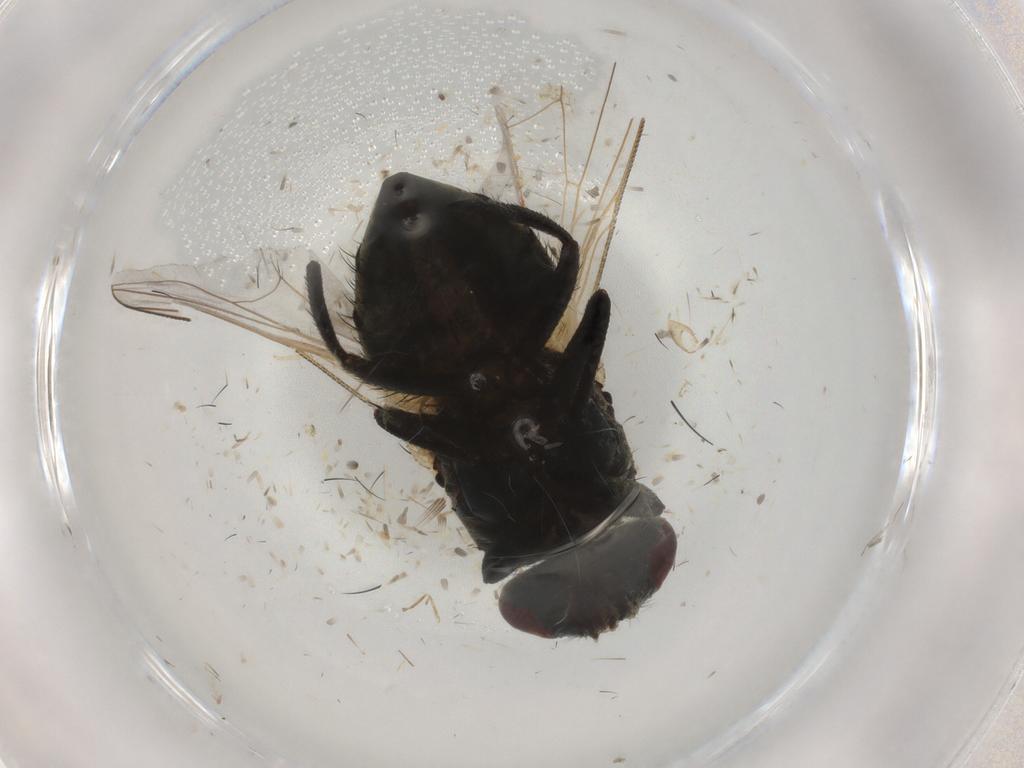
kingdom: Animalia
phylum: Arthropoda
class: Insecta
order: Diptera
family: Muscidae
